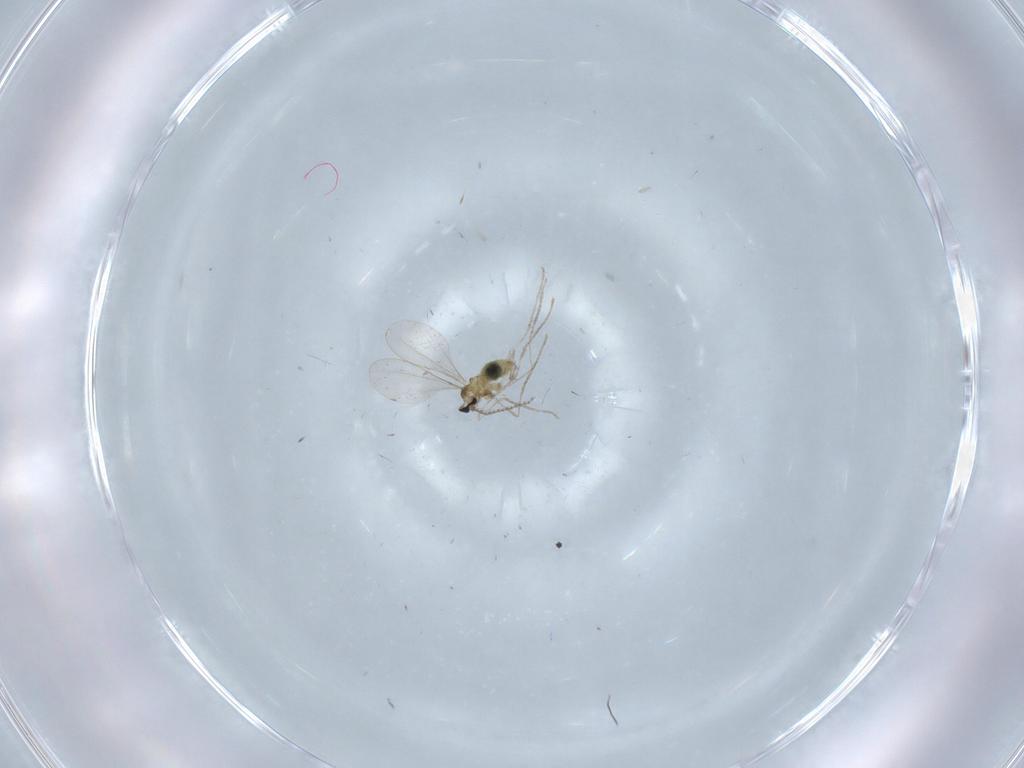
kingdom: Animalia
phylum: Arthropoda
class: Insecta
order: Diptera
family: Cecidomyiidae
